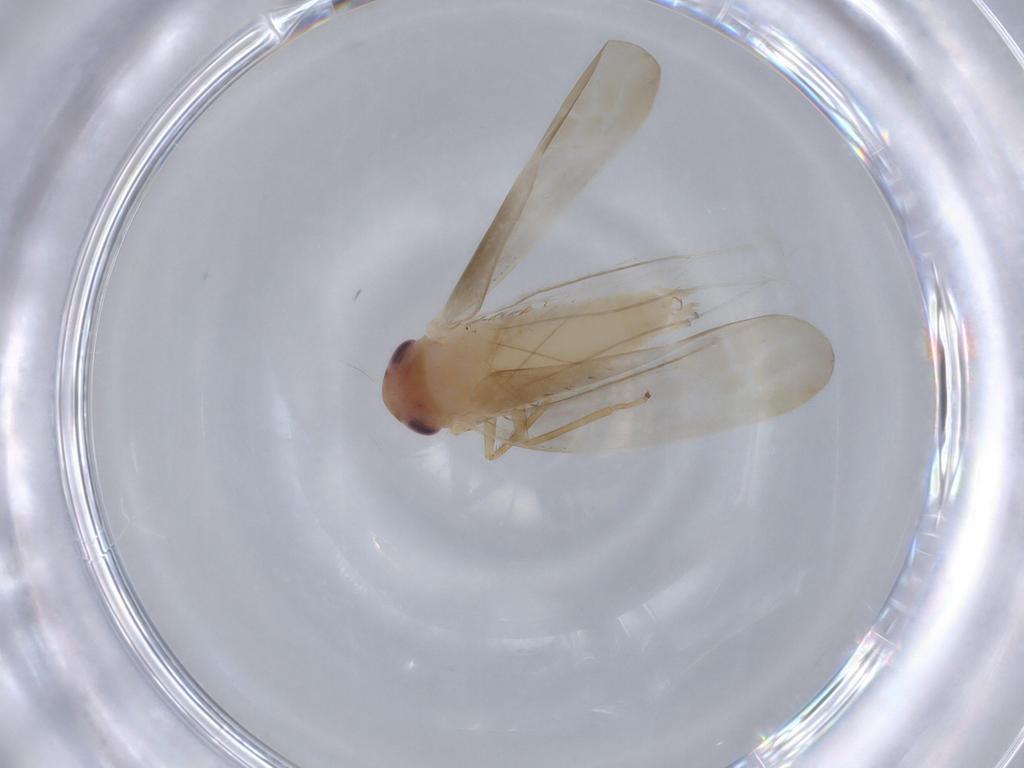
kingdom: Animalia
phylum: Arthropoda
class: Insecta
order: Hemiptera
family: Cicadellidae
